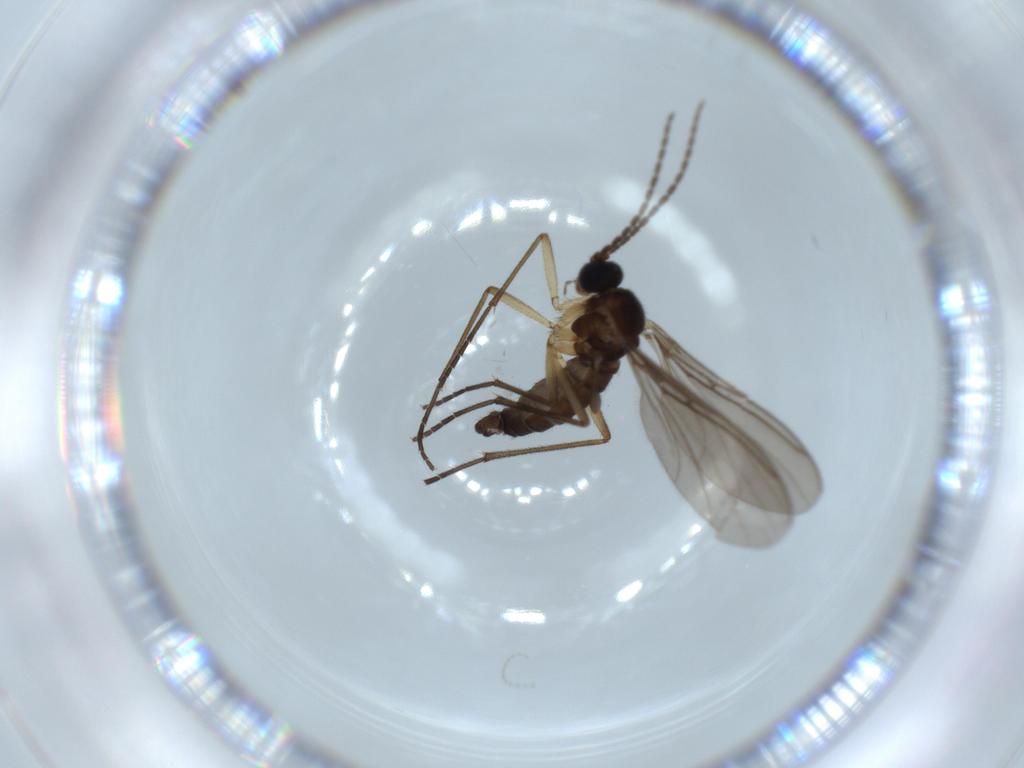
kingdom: Animalia
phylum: Arthropoda
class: Insecta
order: Diptera
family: Sciaridae
